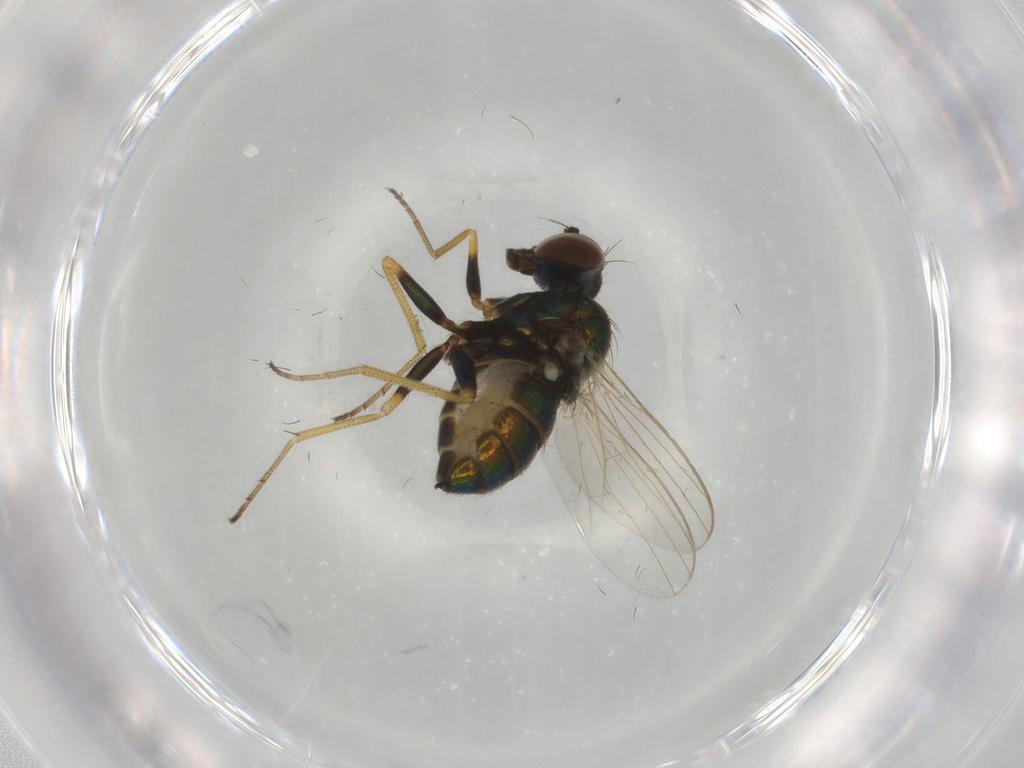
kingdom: Animalia
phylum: Arthropoda
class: Insecta
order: Diptera
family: Dolichopodidae
